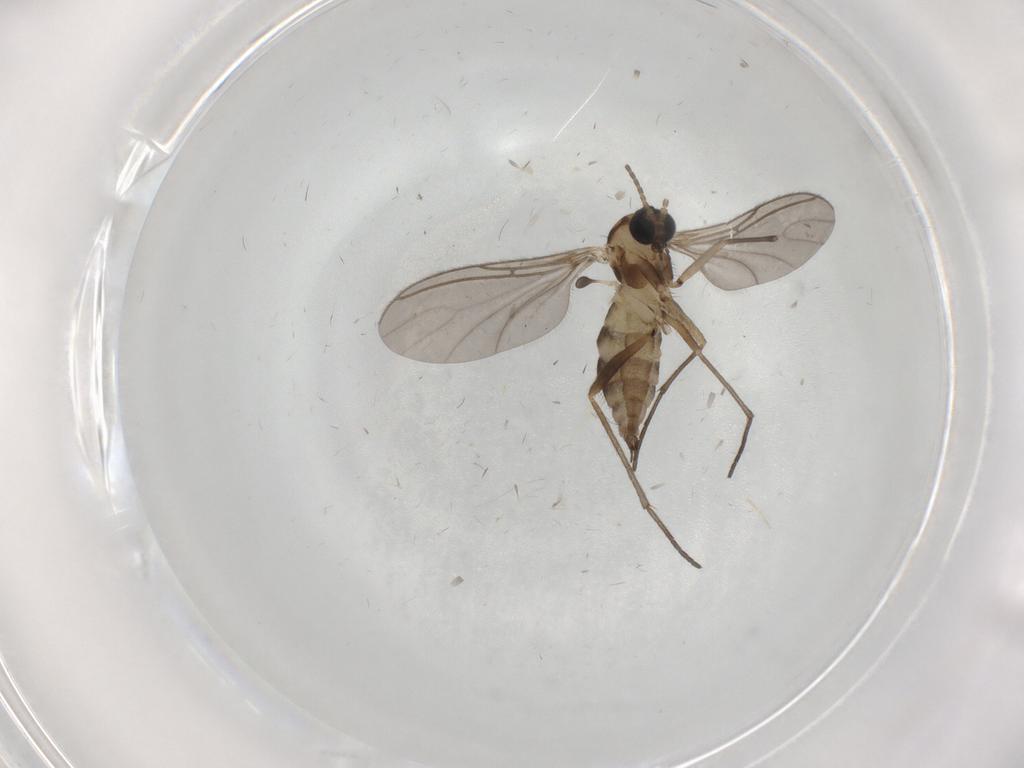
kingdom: Animalia
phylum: Arthropoda
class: Insecta
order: Diptera
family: Sciaridae
